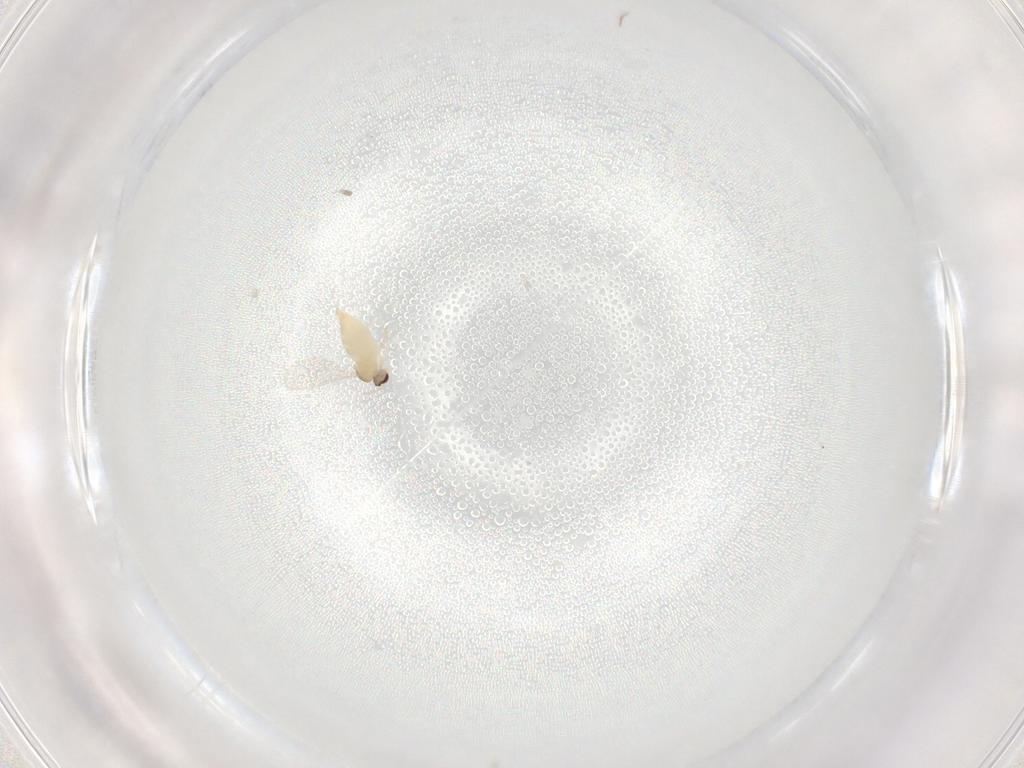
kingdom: Animalia
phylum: Arthropoda
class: Insecta
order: Diptera
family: Cecidomyiidae
